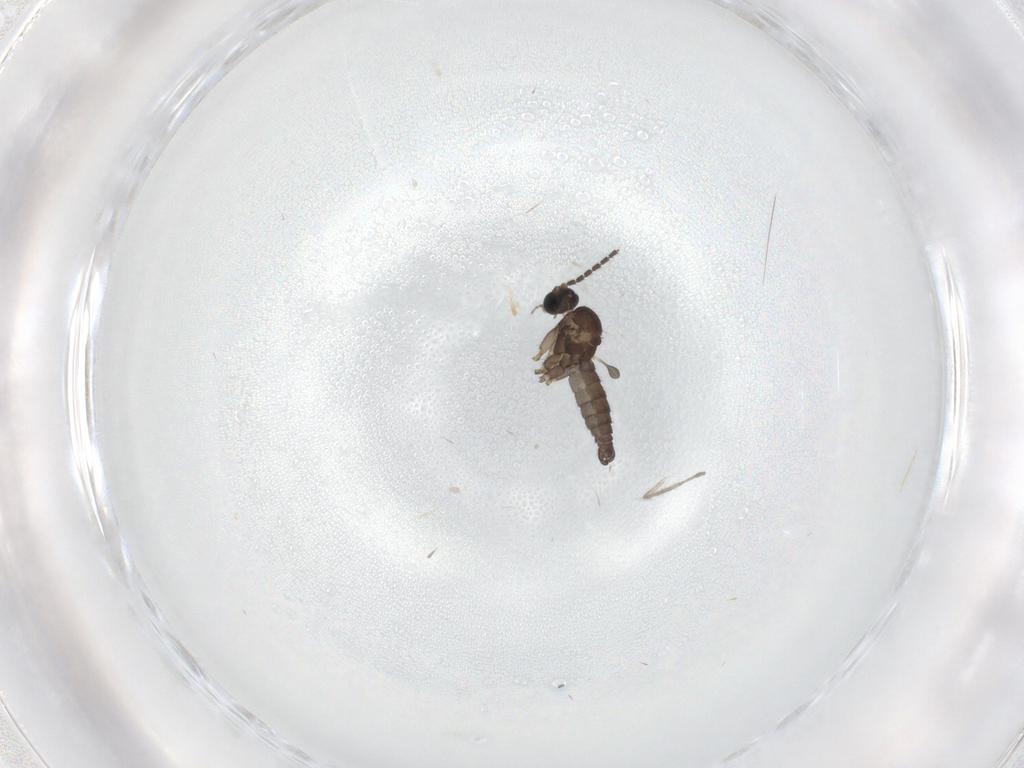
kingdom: Animalia
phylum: Arthropoda
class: Insecta
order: Diptera
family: Sciaridae
